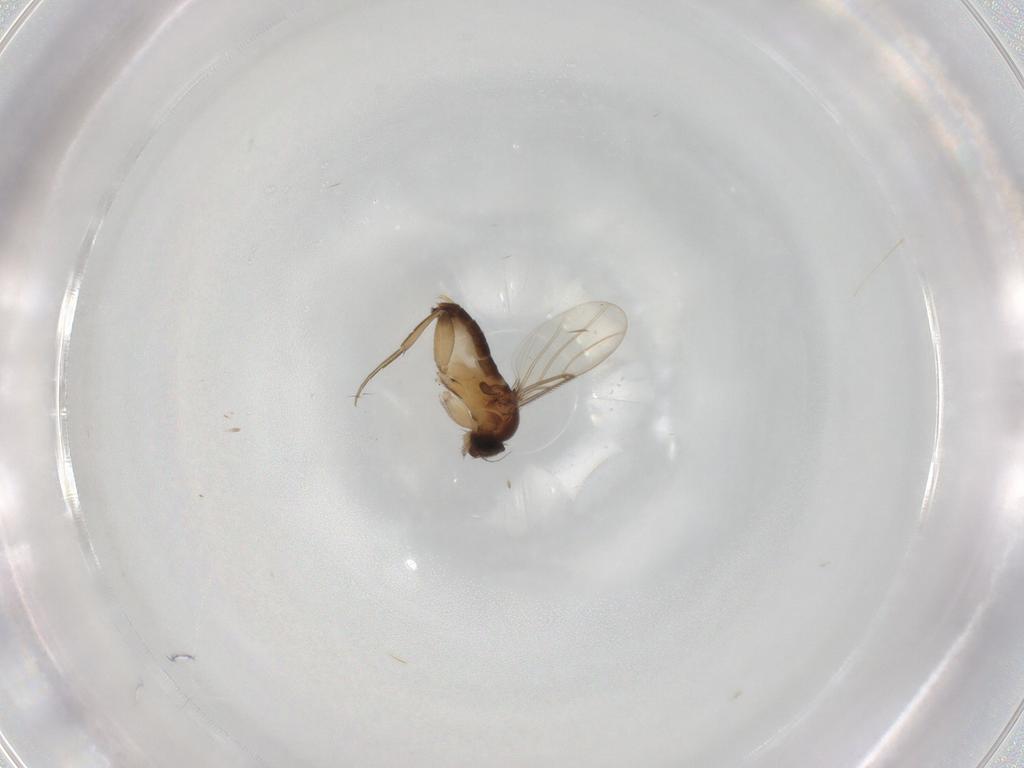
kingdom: Animalia
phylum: Arthropoda
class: Insecta
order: Diptera
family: Phoridae
